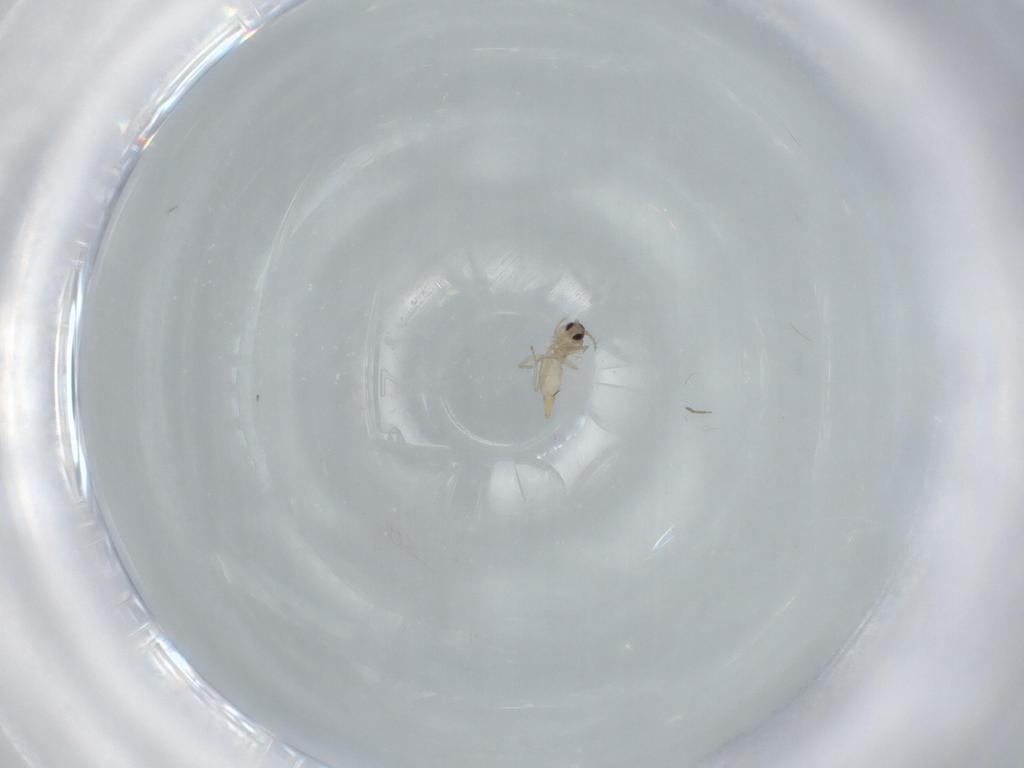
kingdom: Animalia
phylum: Arthropoda
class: Insecta
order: Diptera
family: Cecidomyiidae
